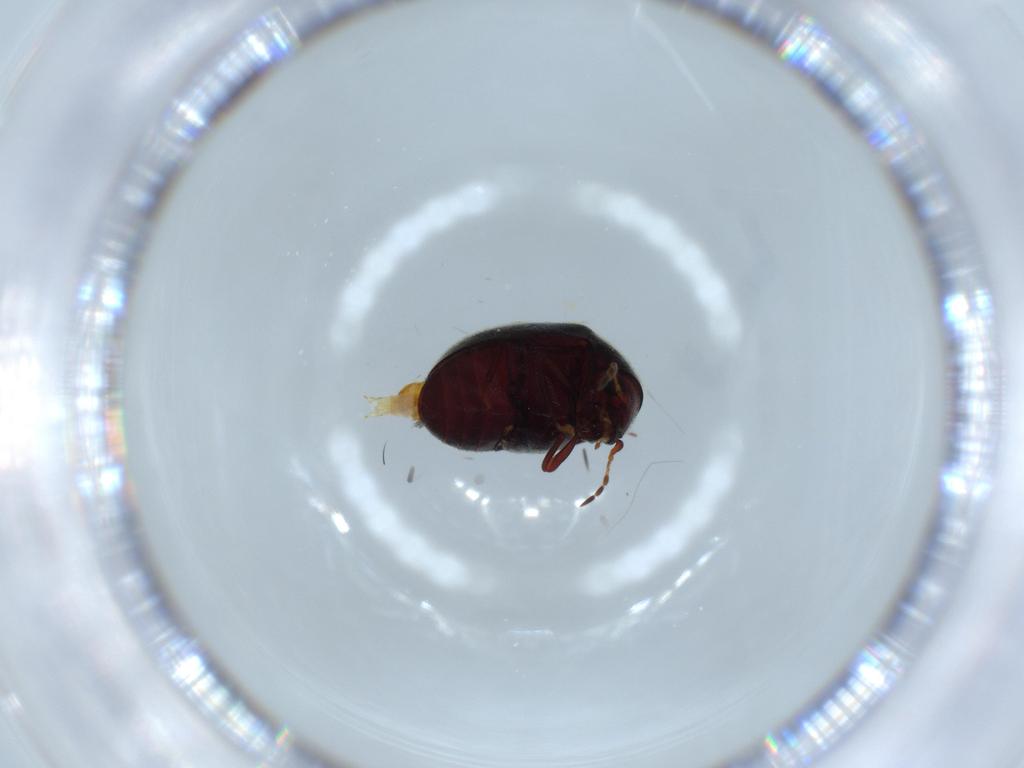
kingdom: Animalia
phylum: Arthropoda
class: Insecta
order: Coleoptera
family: Ptinidae
